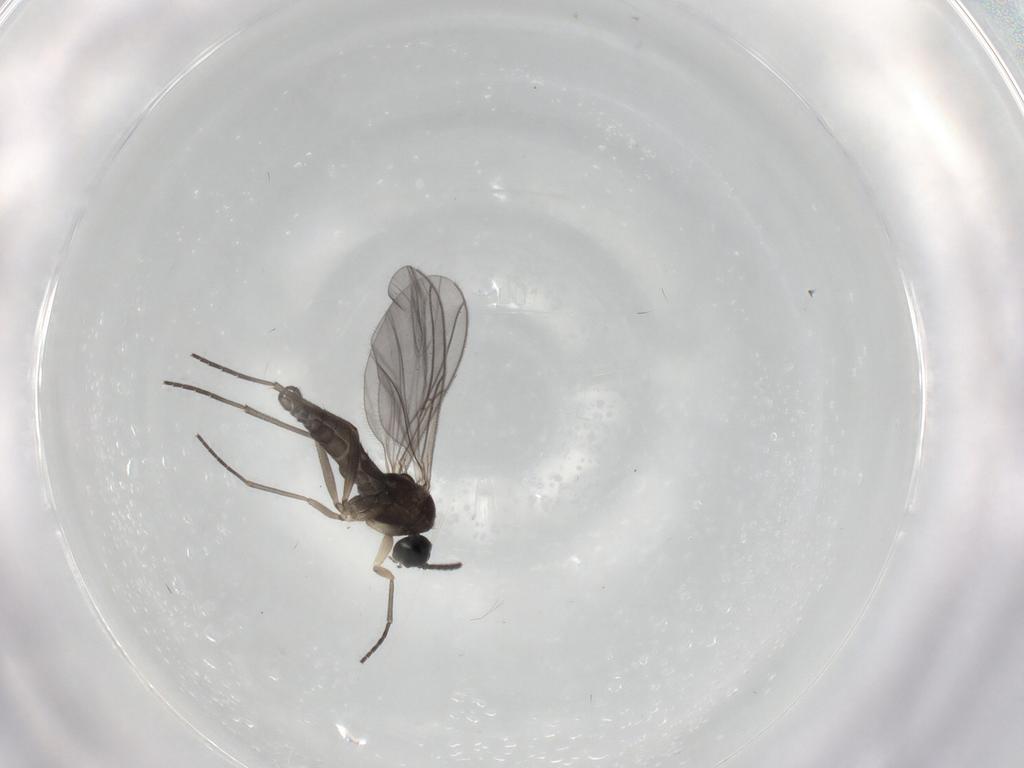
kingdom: Animalia
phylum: Arthropoda
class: Insecta
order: Diptera
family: Sciaridae
